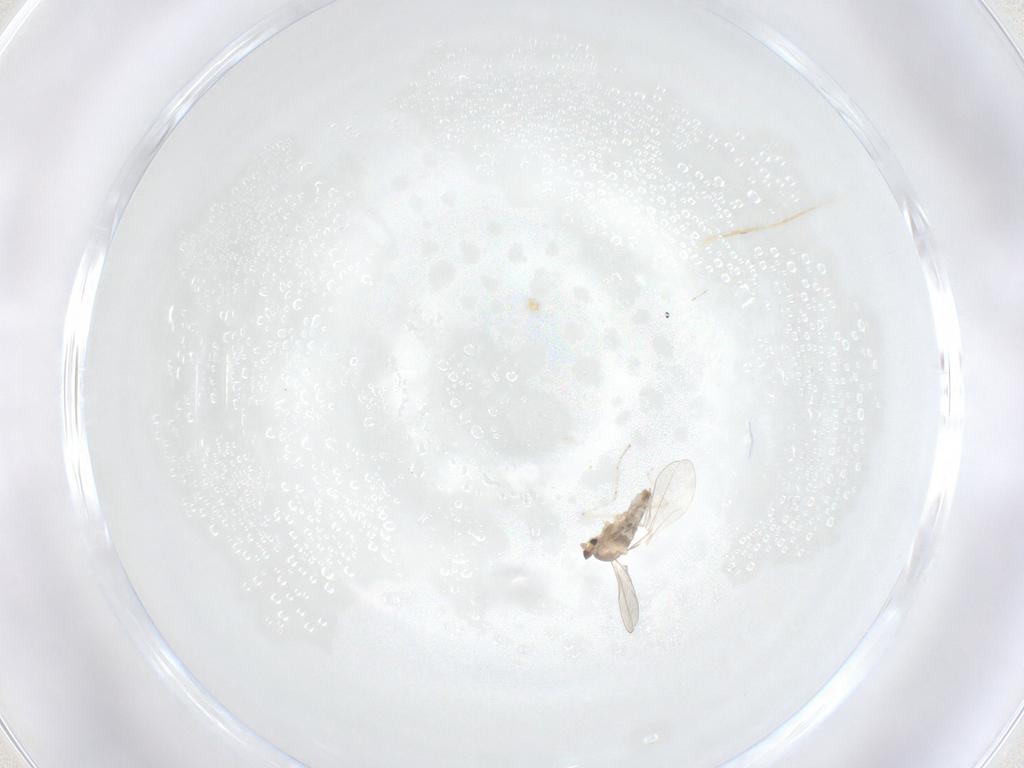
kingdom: Animalia
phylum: Arthropoda
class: Insecta
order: Diptera
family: Cecidomyiidae
